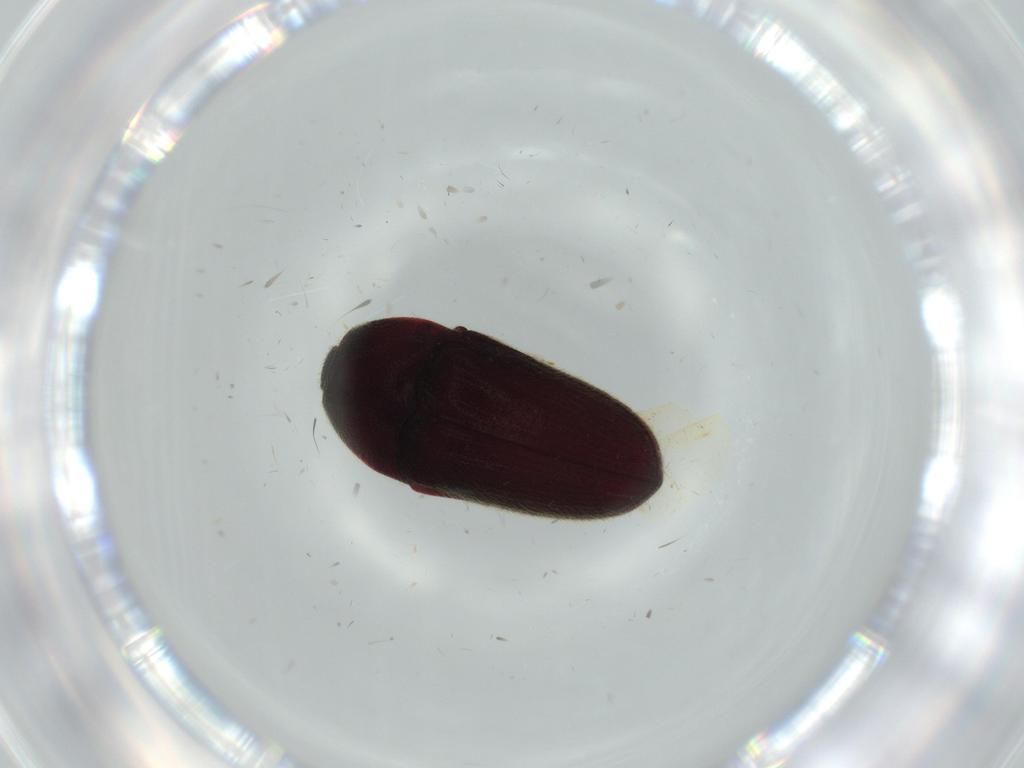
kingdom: Animalia
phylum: Arthropoda
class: Insecta
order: Coleoptera
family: Throscidae
